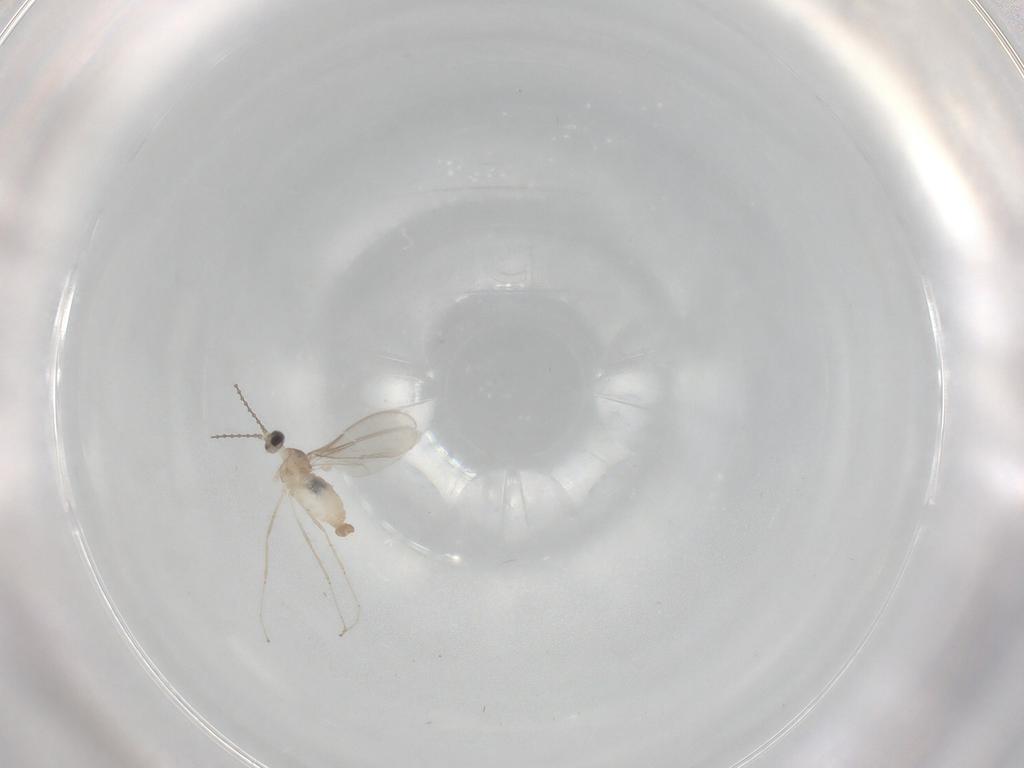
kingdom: Animalia
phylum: Arthropoda
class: Insecta
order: Diptera
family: Cecidomyiidae
